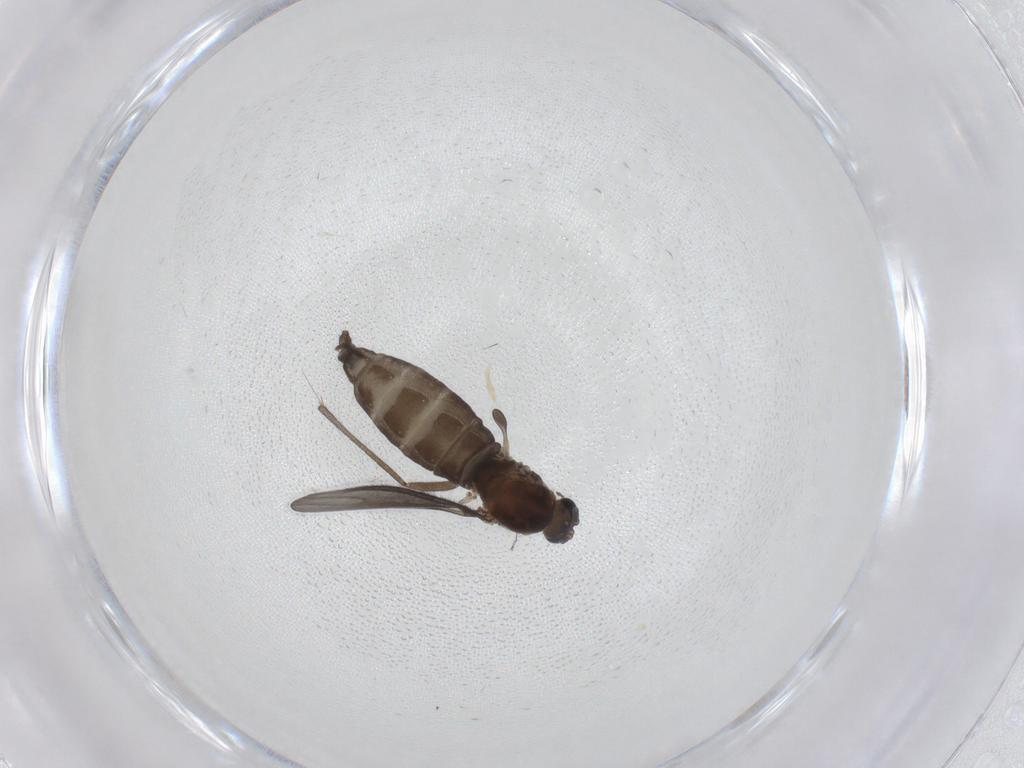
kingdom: Animalia
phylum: Arthropoda
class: Insecta
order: Diptera
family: Sciaridae
